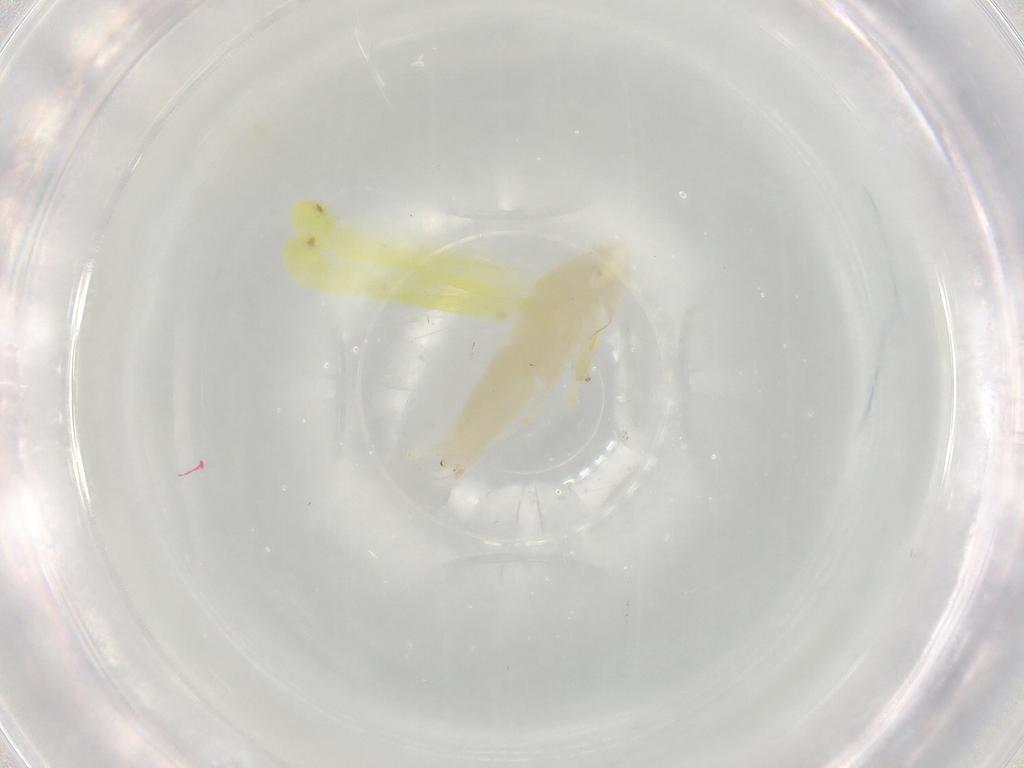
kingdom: Animalia
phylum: Arthropoda
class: Insecta
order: Hemiptera
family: Cicadellidae
